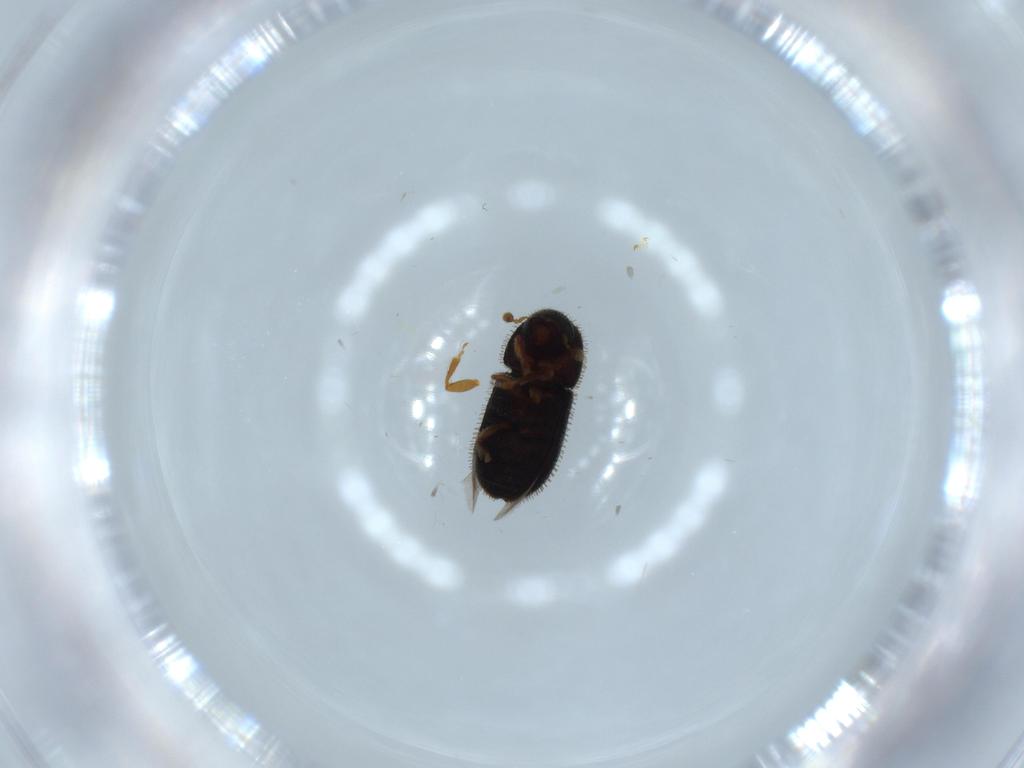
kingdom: Animalia
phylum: Arthropoda
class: Insecta
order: Coleoptera
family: Curculionidae
